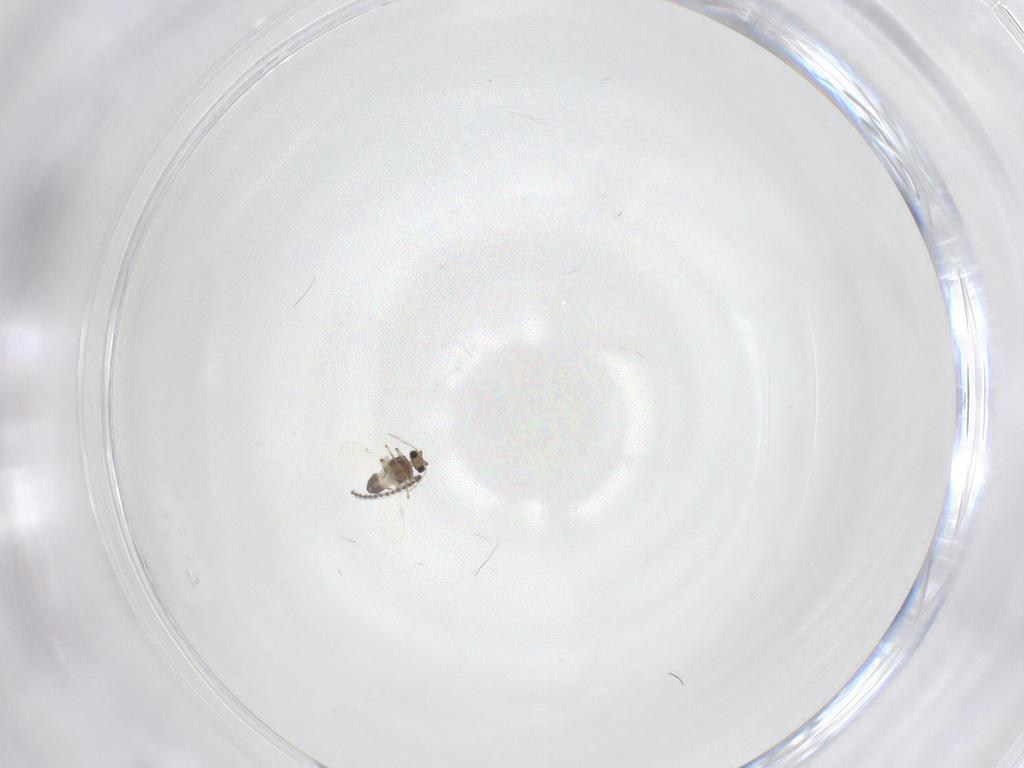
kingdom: Animalia
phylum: Arthropoda
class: Insecta
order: Diptera
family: Ceratopogonidae
